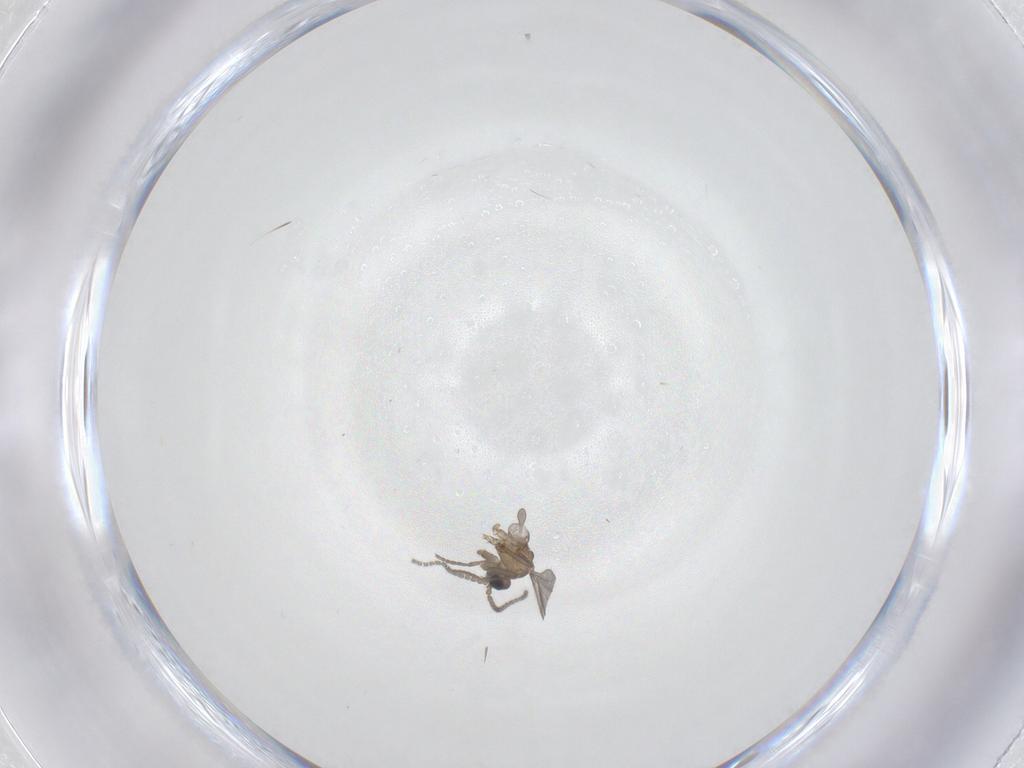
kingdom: Animalia
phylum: Arthropoda
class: Insecta
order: Diptera
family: Sciaridae
